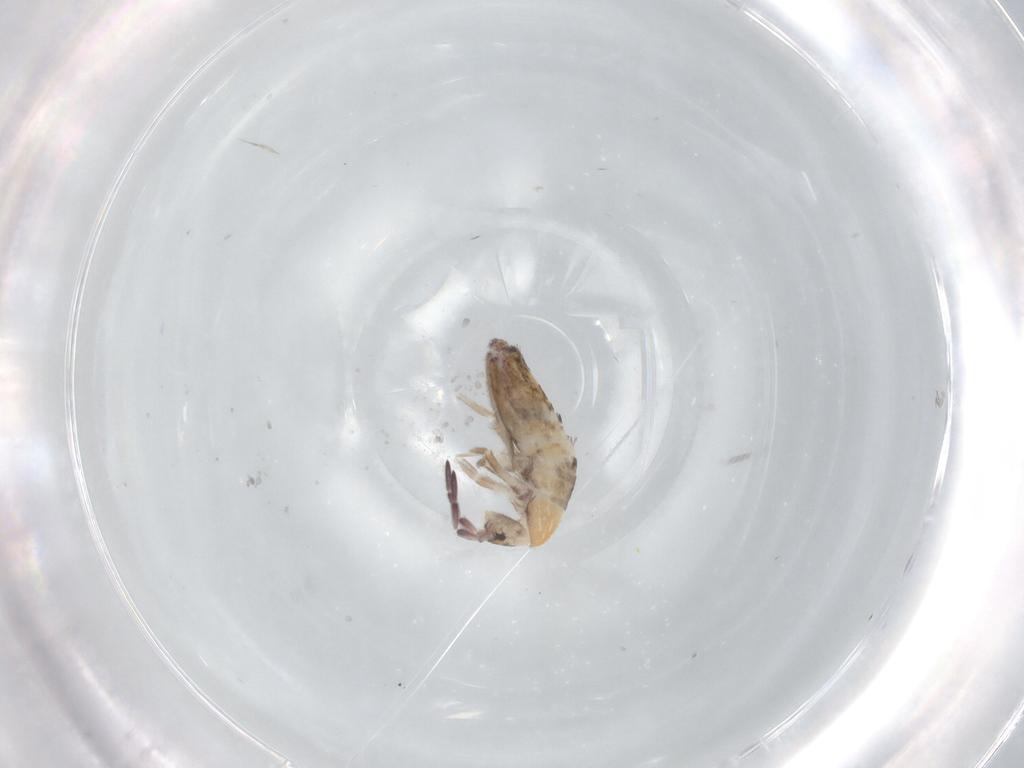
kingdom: Animalia
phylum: Arthropoda
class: Collembola
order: Entomobryomorpha
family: Entomobryidae
